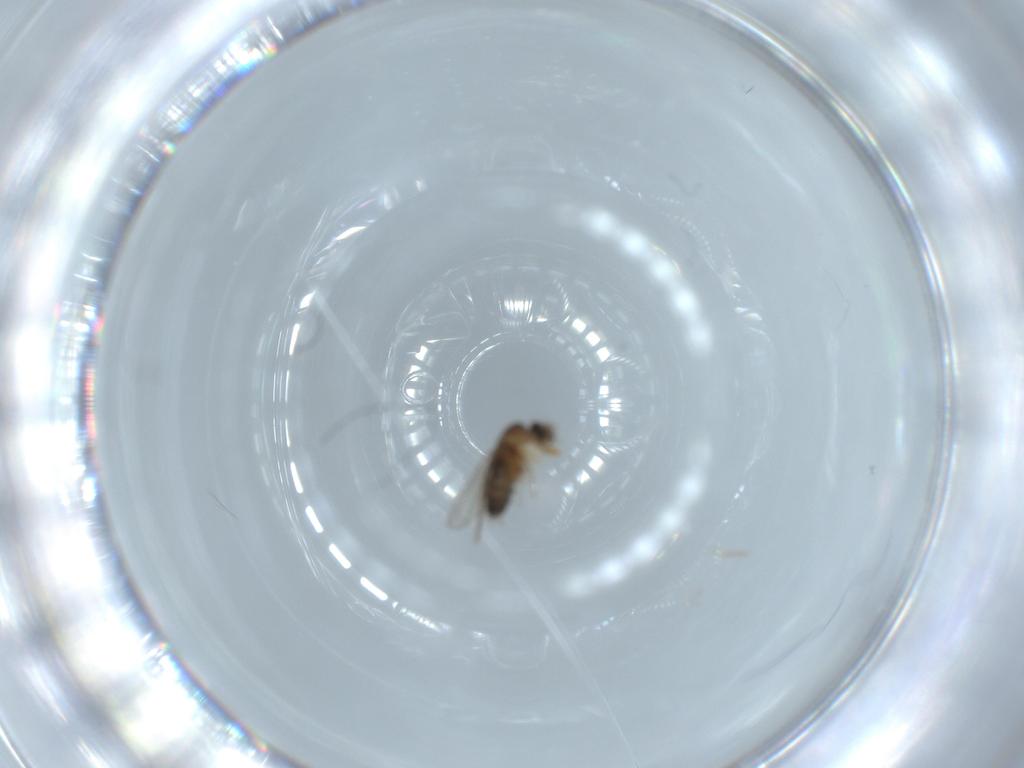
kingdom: Animalia
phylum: Arthropoda
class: Insecta
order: Diptera
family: Phoridae
